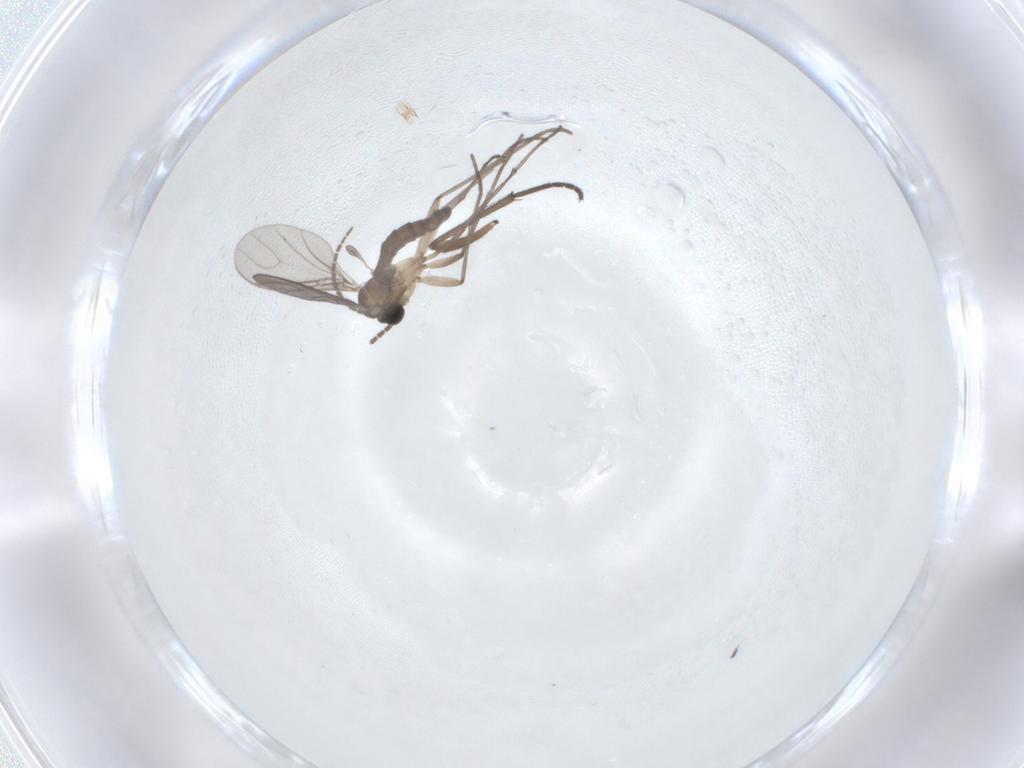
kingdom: Animalia
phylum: Arthropoda
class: Insecta
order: Diptera
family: Sciaridae
